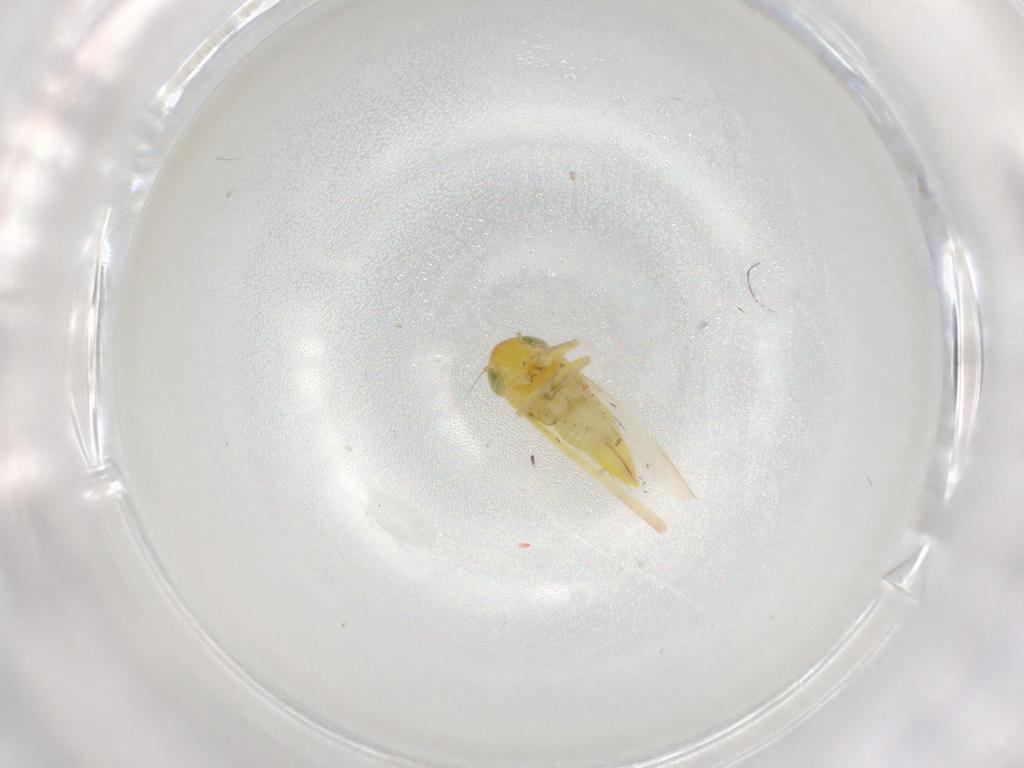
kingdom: Animalia
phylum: Arthropoda
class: Insecta
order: Hemiptera
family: Cicadellidae
